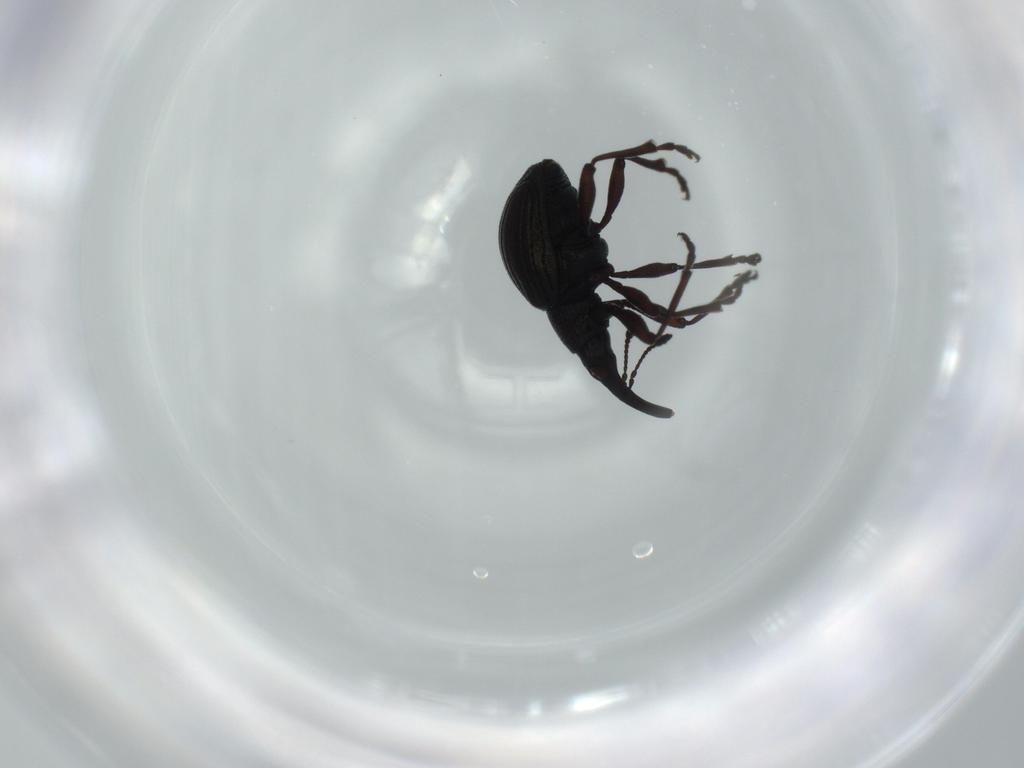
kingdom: Animalia
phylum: Arthropoda
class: Insecta
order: Coleoptera
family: Brentidae
